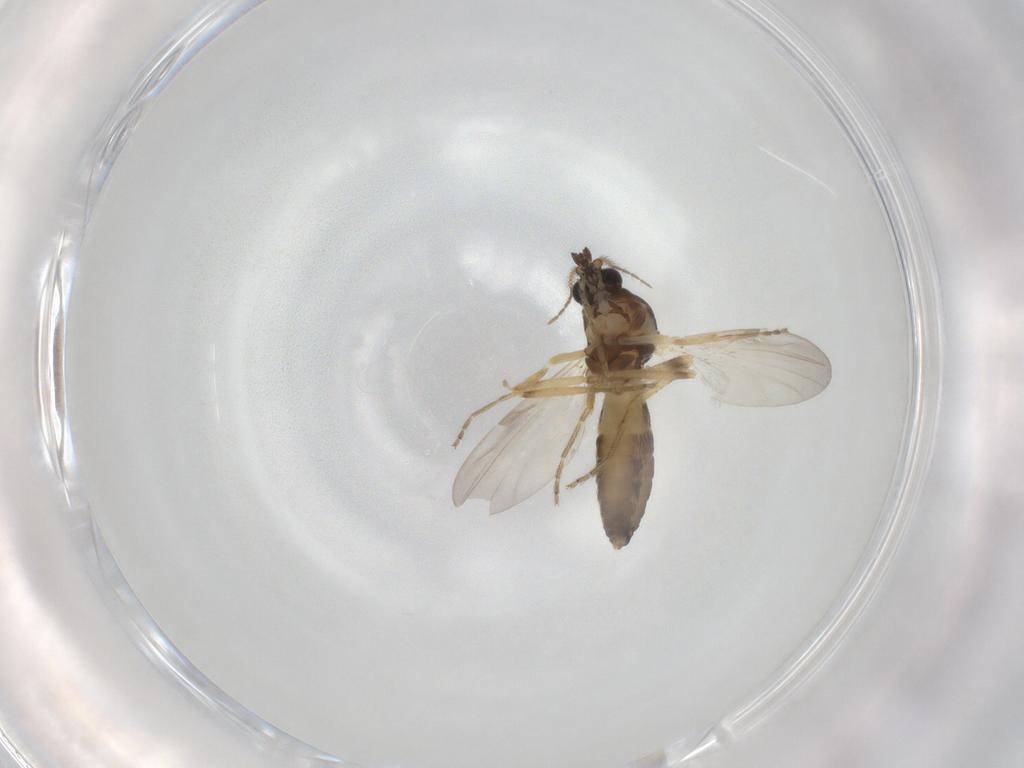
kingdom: Animalia
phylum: Arthropoda
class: Insecta
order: Diptera
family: Ceratopogonidae
